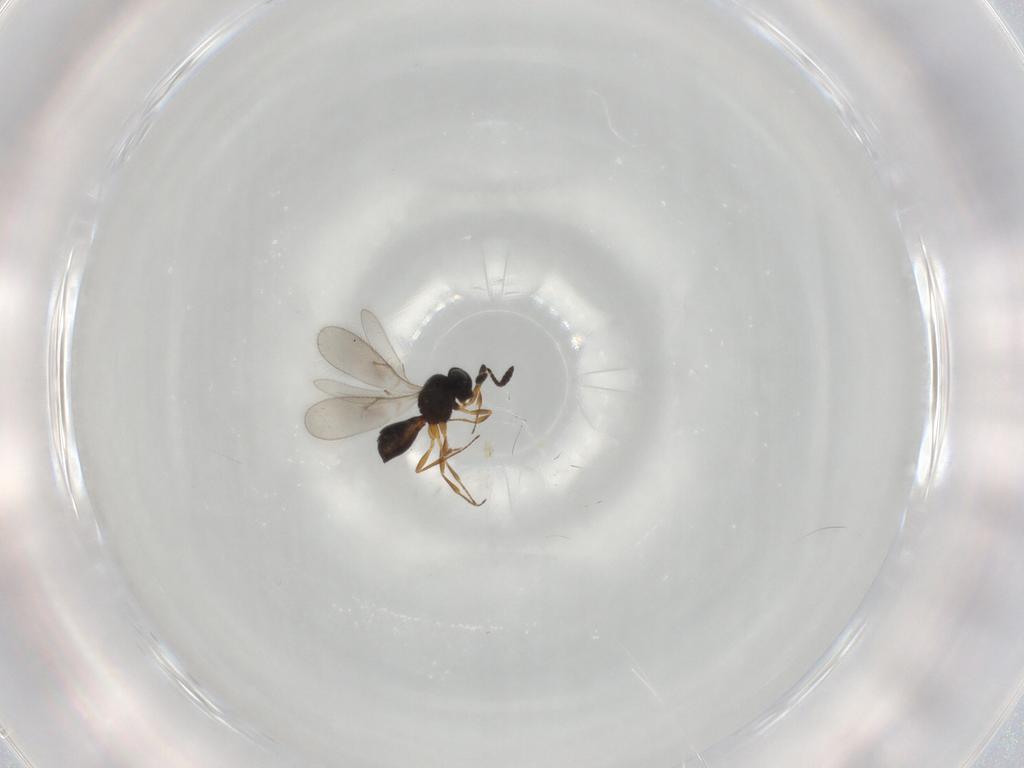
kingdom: Animalia
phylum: Arthropoda
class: Insecta
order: Hymenoptera
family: Scelionidae
